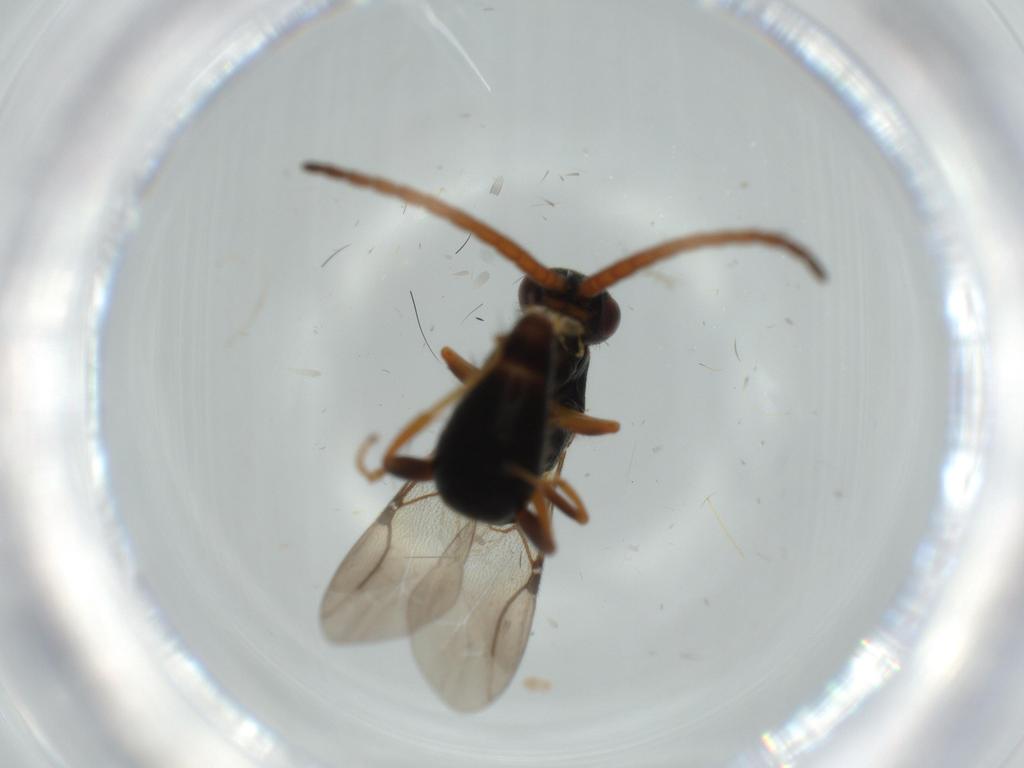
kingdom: Animalia
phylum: Arthropoda
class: Insecta
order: Hymenoptera
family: Bethylidae
